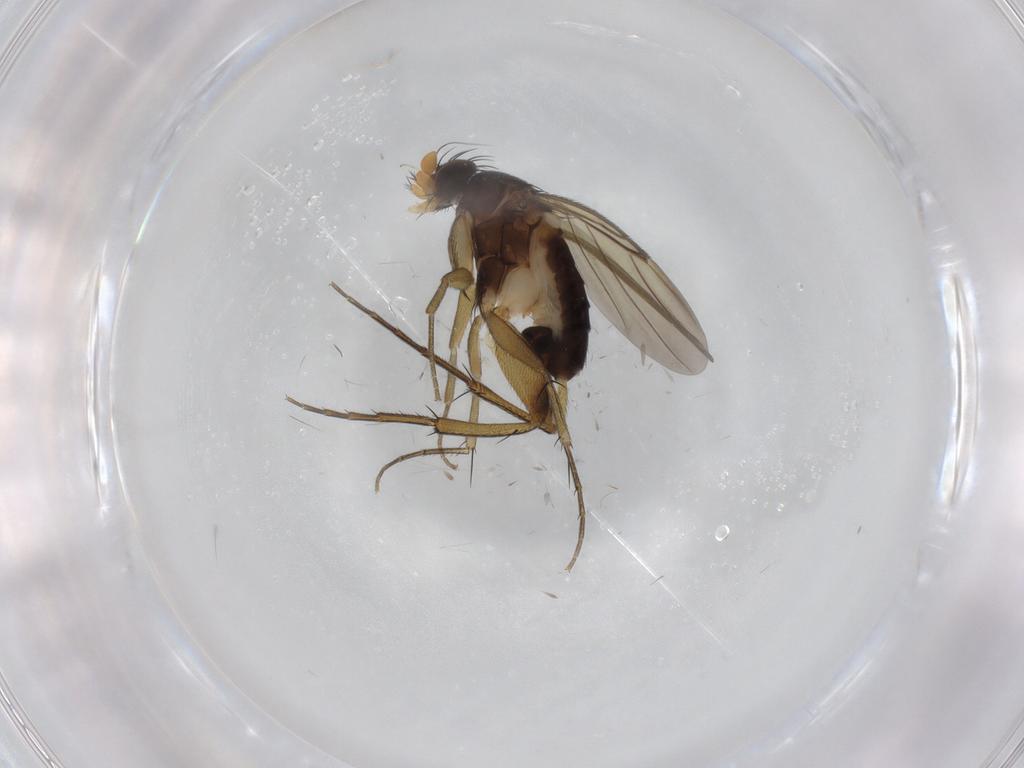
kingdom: Animalia
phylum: Arthropoda
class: Insecta
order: Diptera
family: Phoridae
